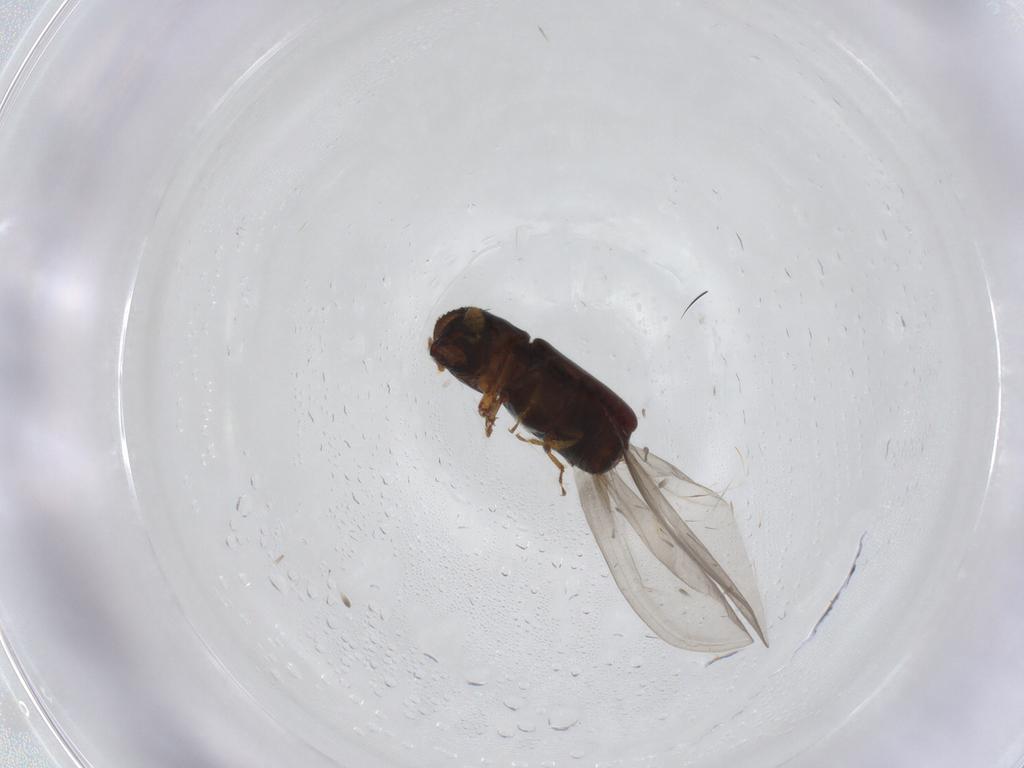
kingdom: Animalia
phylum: Arthropoda
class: Insecta
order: Coleoptera
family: Curculionidae
